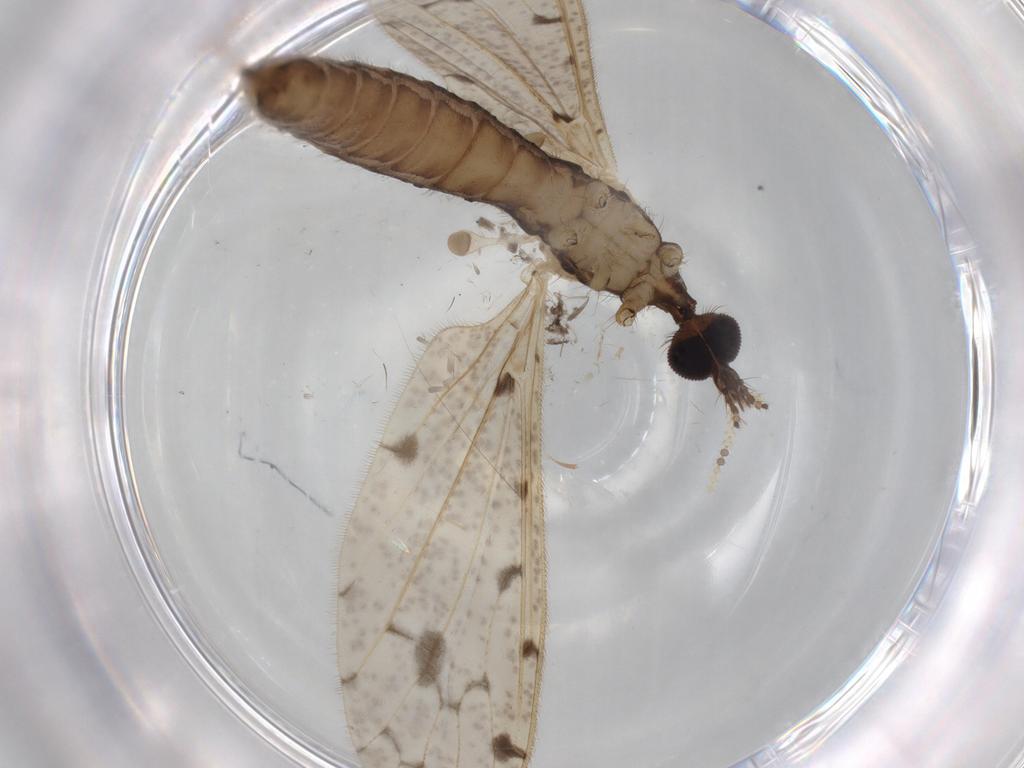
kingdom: Animalia
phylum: Arthropoda
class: Insecta
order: Diptera
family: Limoniidae
